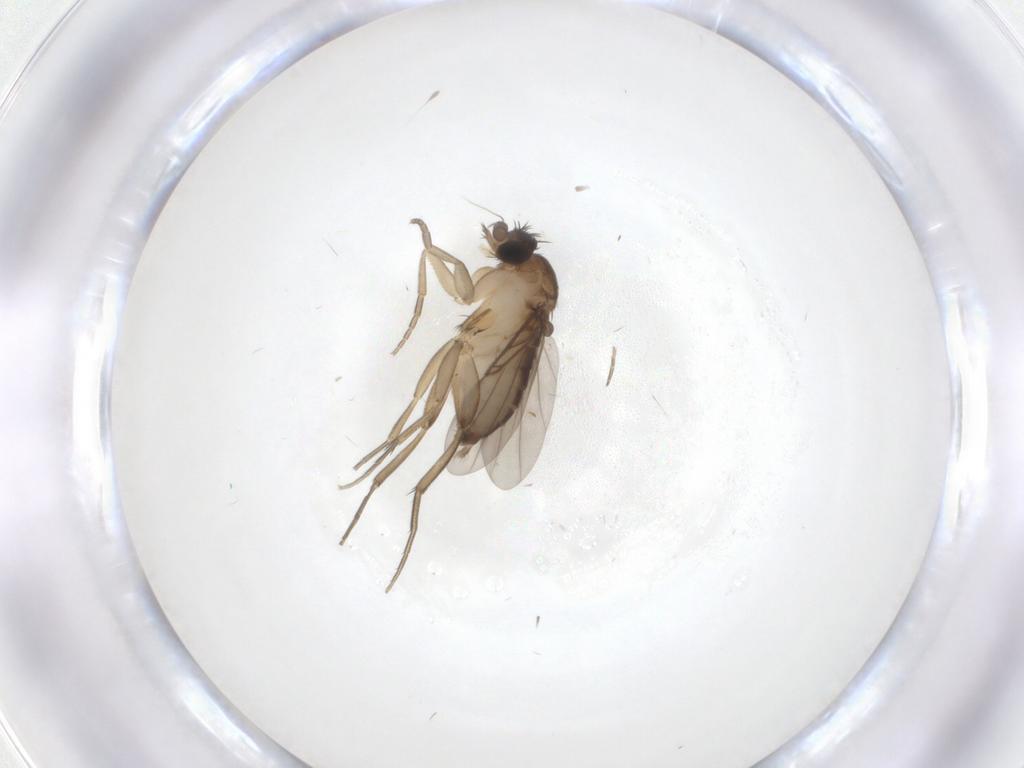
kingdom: Animalia
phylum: Arthropoda
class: Insecta
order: Diptera
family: Phoridae
